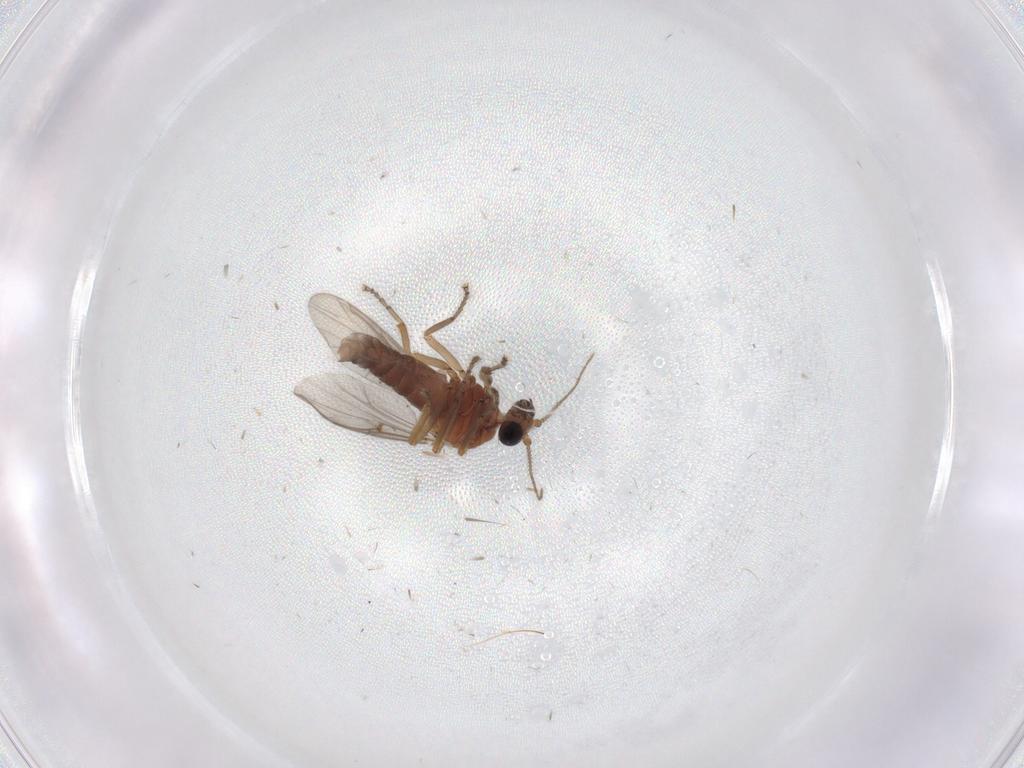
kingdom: Animalia
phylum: Arthropoda
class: Insecta
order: Diptera
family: Ceratopogonidae
